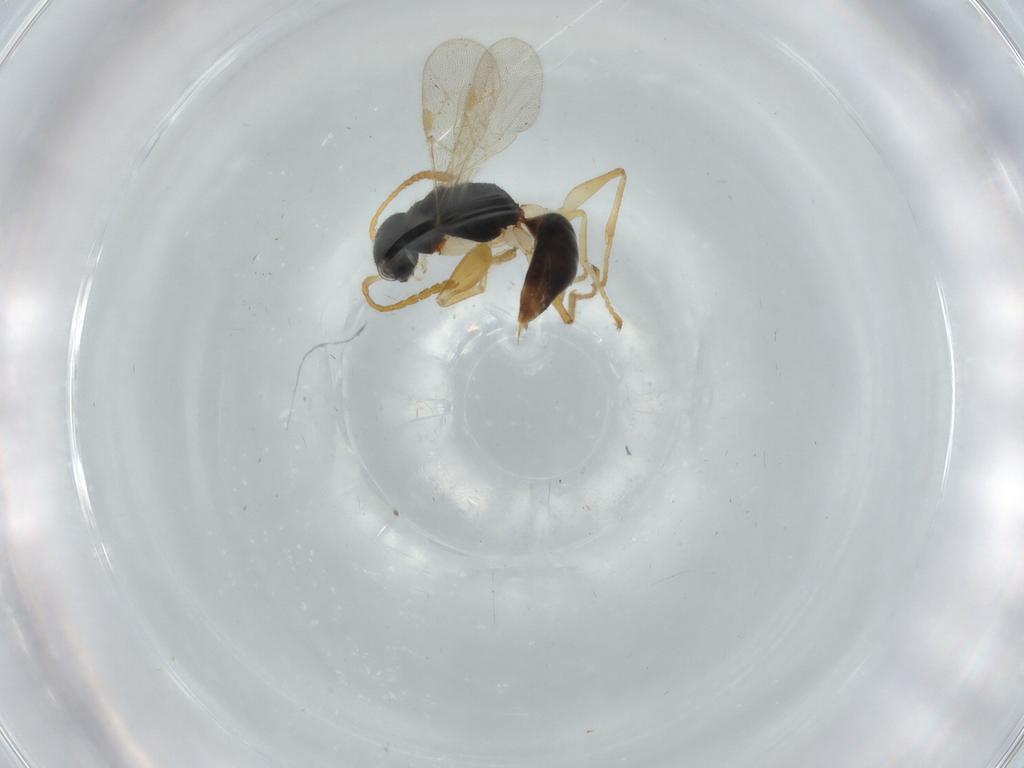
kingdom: Animalia
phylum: Arthropoda
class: Insecta
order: Hymenoptera
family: Dryinidae
